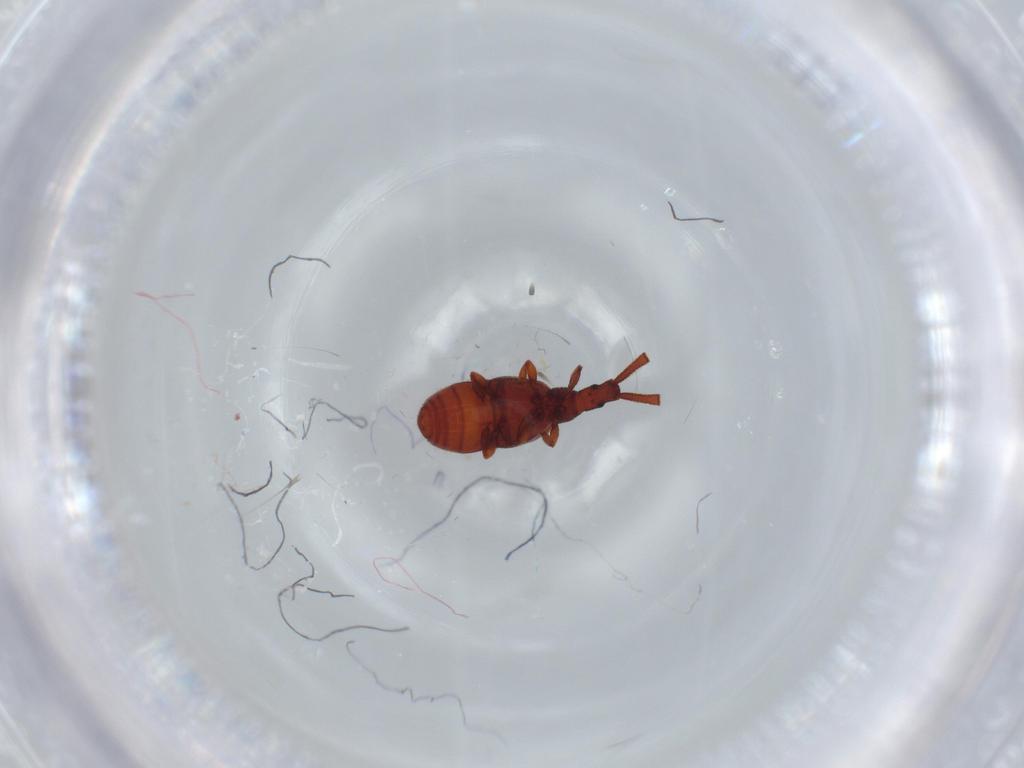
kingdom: Animalia
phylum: Arthropoda
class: Insecta
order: Coleoptera
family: Staphylinidae
